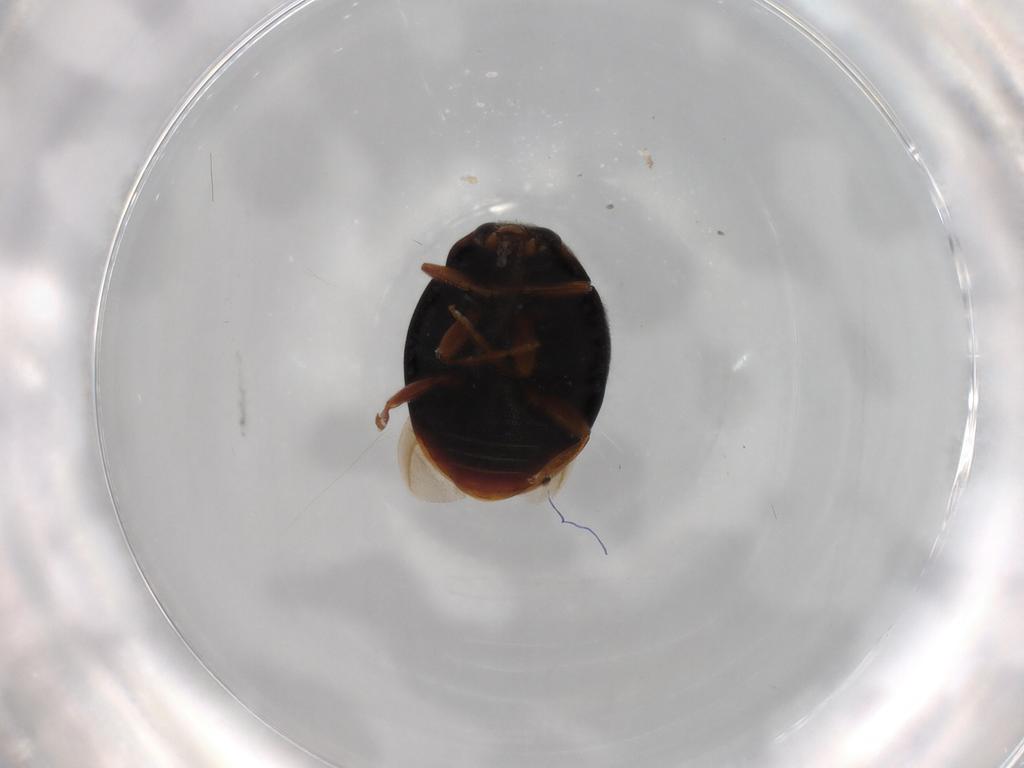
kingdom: Animalia
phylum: Arthropoda
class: Insecta
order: Coleoptera
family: Coccinellidae
